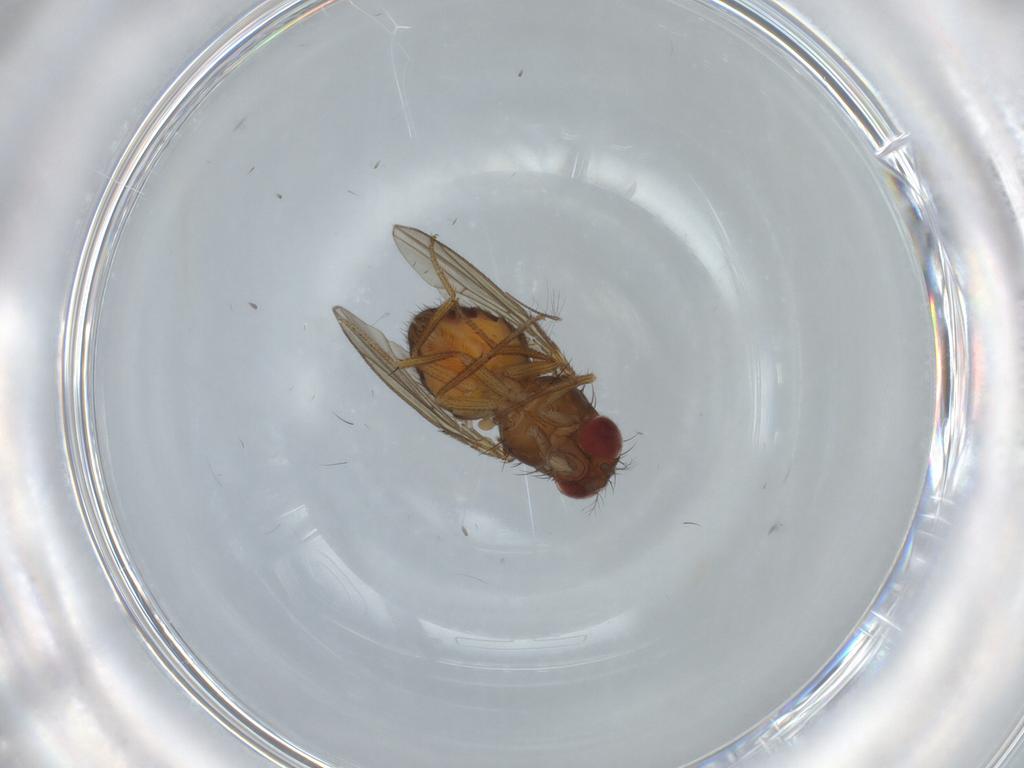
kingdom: Animalia
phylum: Arthropoda
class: Insecta
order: Diptera
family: Drosophilidae
